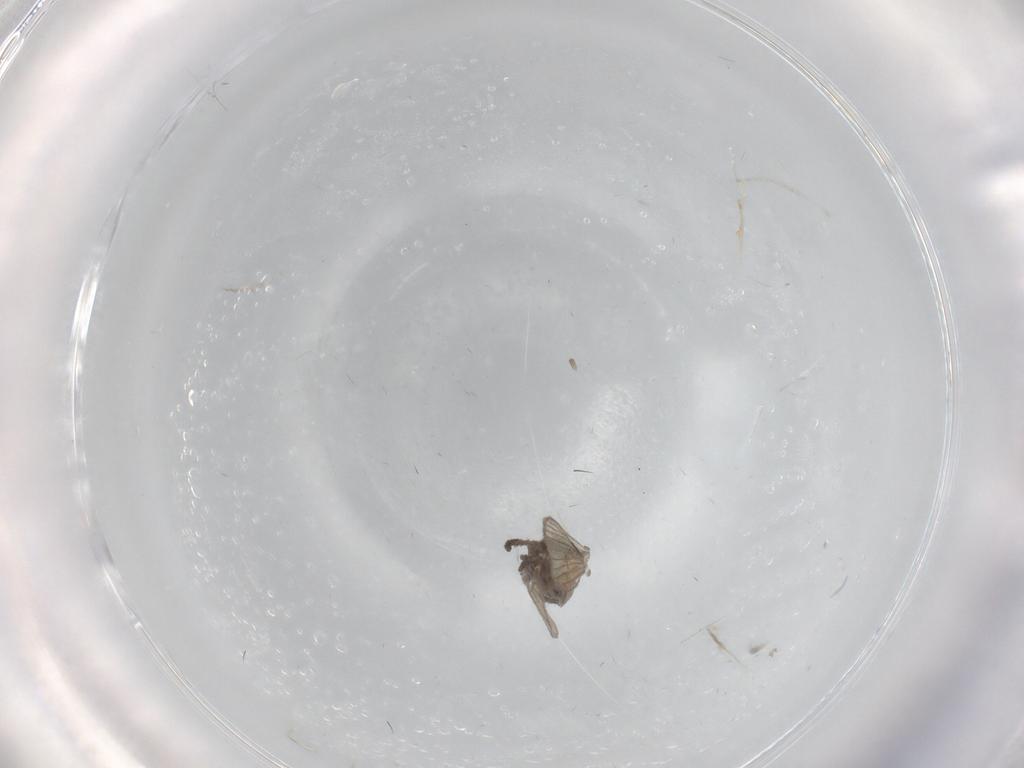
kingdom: Animalia
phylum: Arthropoda
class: Insecta
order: Diptera
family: Psychodidae
